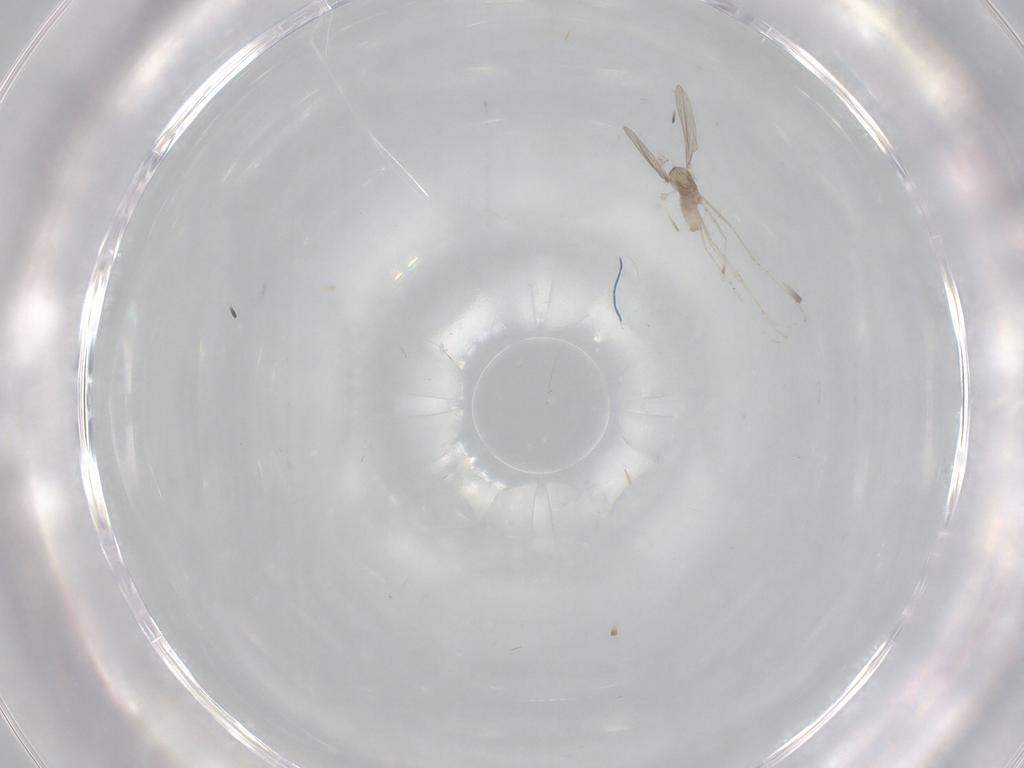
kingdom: Animalia
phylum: Arthropoda
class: Insecta
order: Diptera
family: Cecidomyiidae
